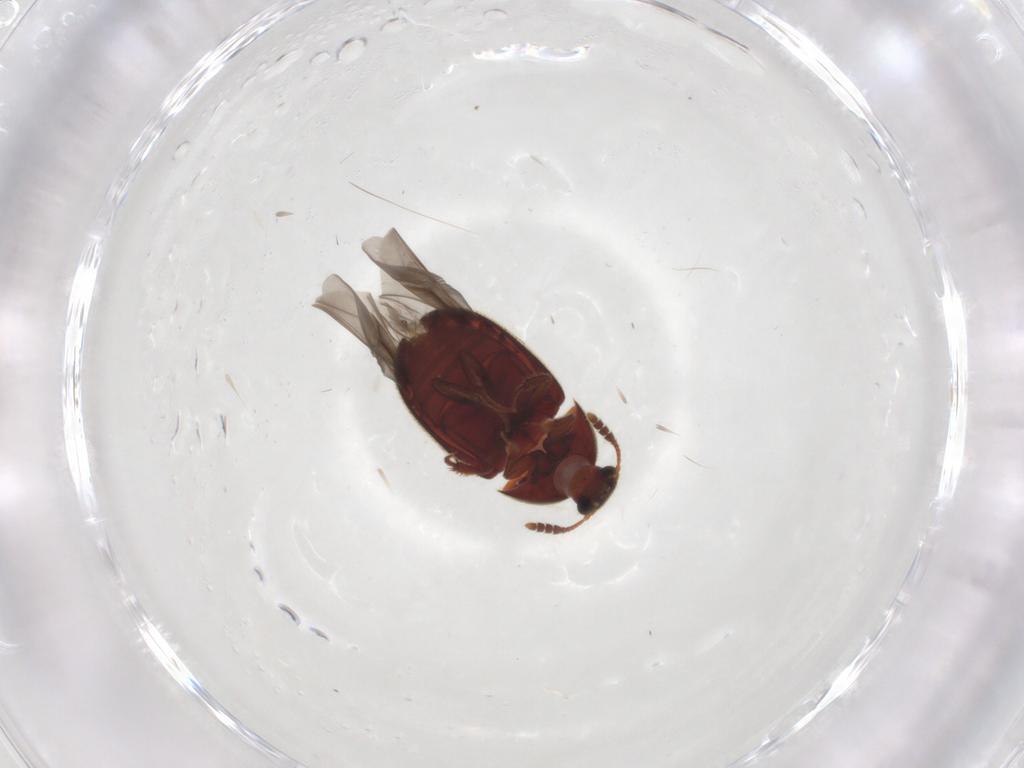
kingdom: Animalia
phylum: Arthropoda
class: Insecta
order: Coleoptera
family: Leiodidae
